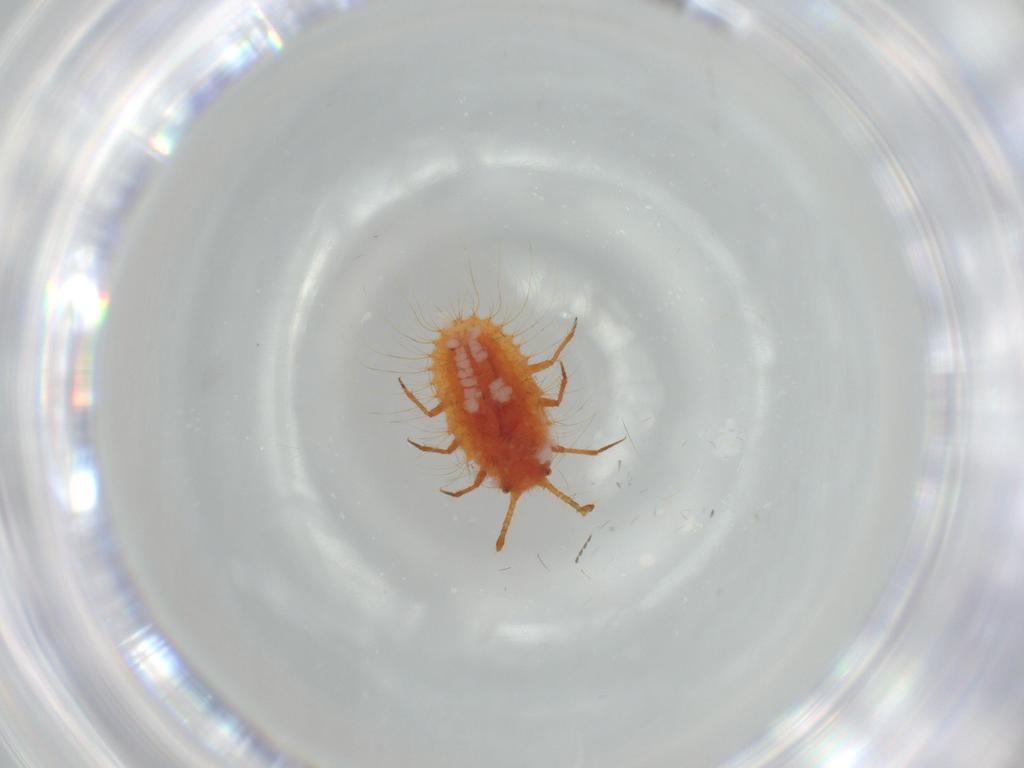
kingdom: Animalia
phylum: Arthropoda
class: Insecta
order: Hemiptera
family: Coccoidea_incertae_sedis
